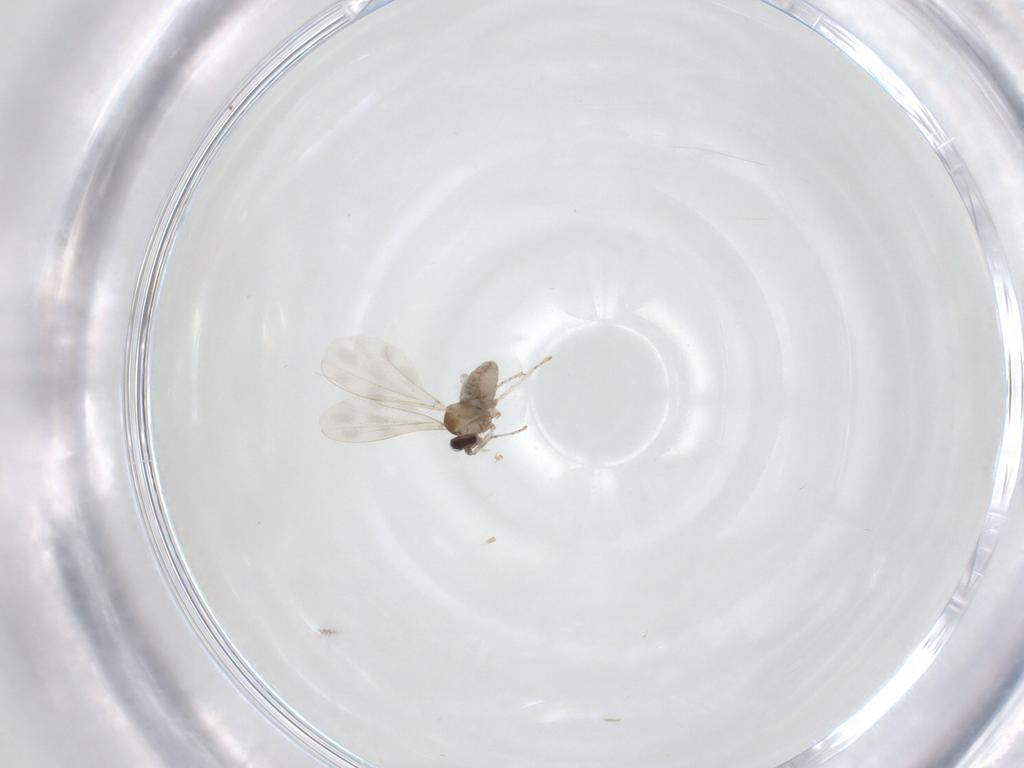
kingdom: Animalia
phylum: Arthropoda
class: Insecta
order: Diptera
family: Cecidomyiidae
